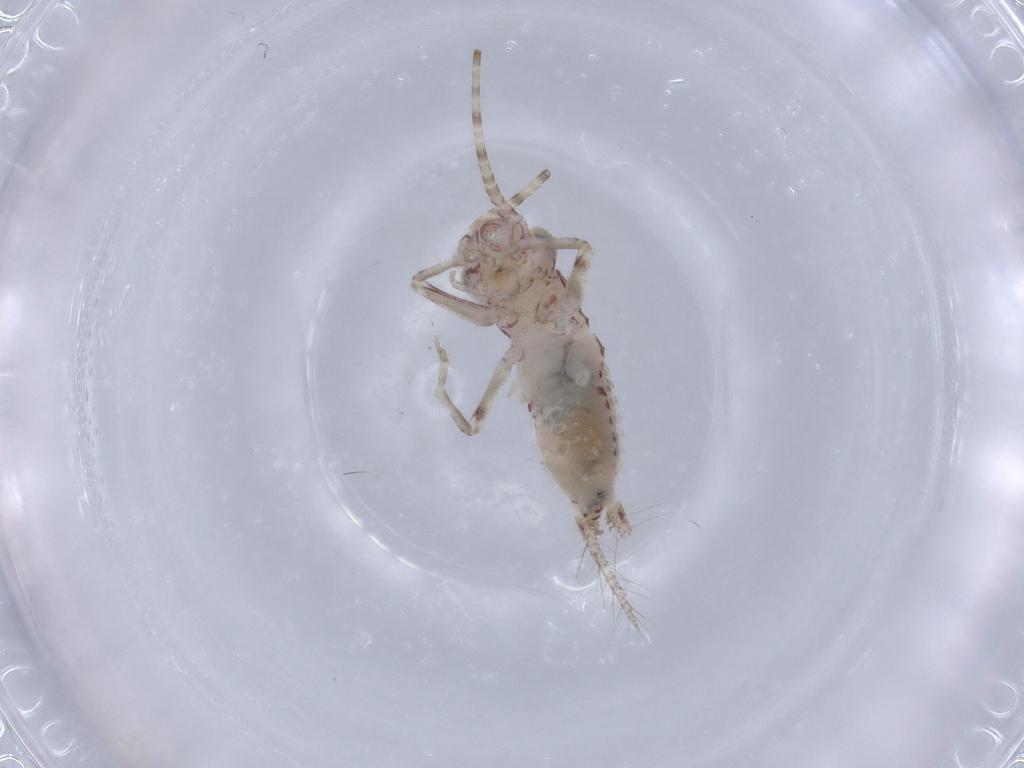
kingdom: Animalia
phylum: Arthropoda
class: Insecta
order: Orthoptera
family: Trigonidiidae
